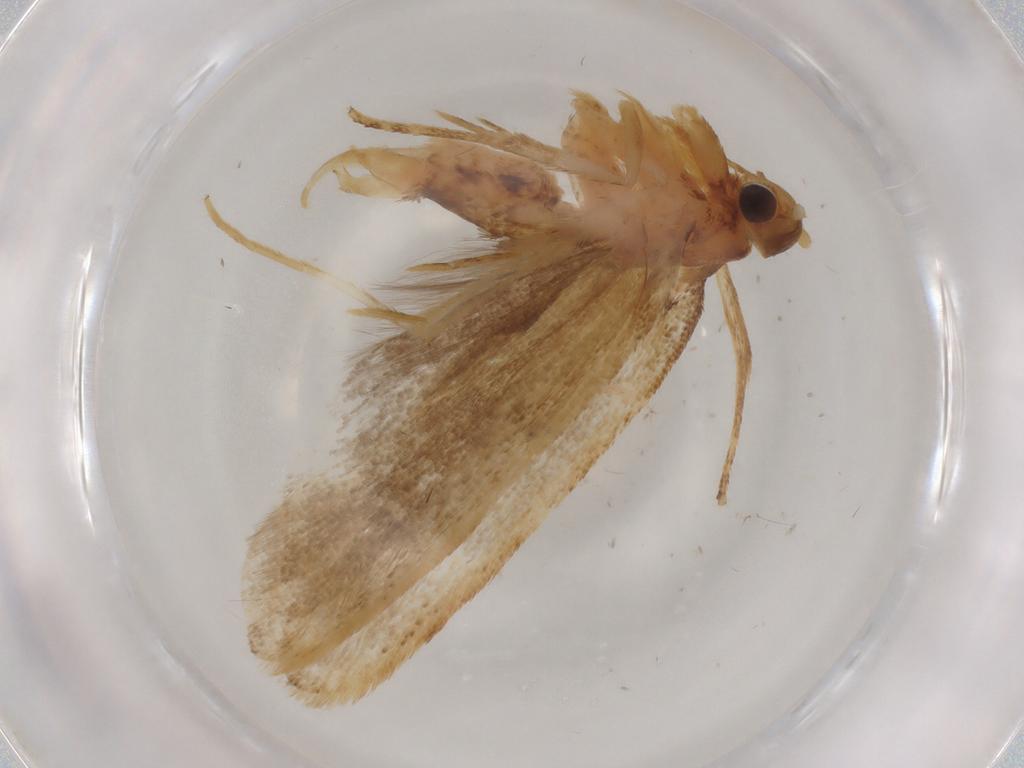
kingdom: Animalia
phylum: Arthropoda
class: Insecta
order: Lepidoptera
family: Lecithoceridae
